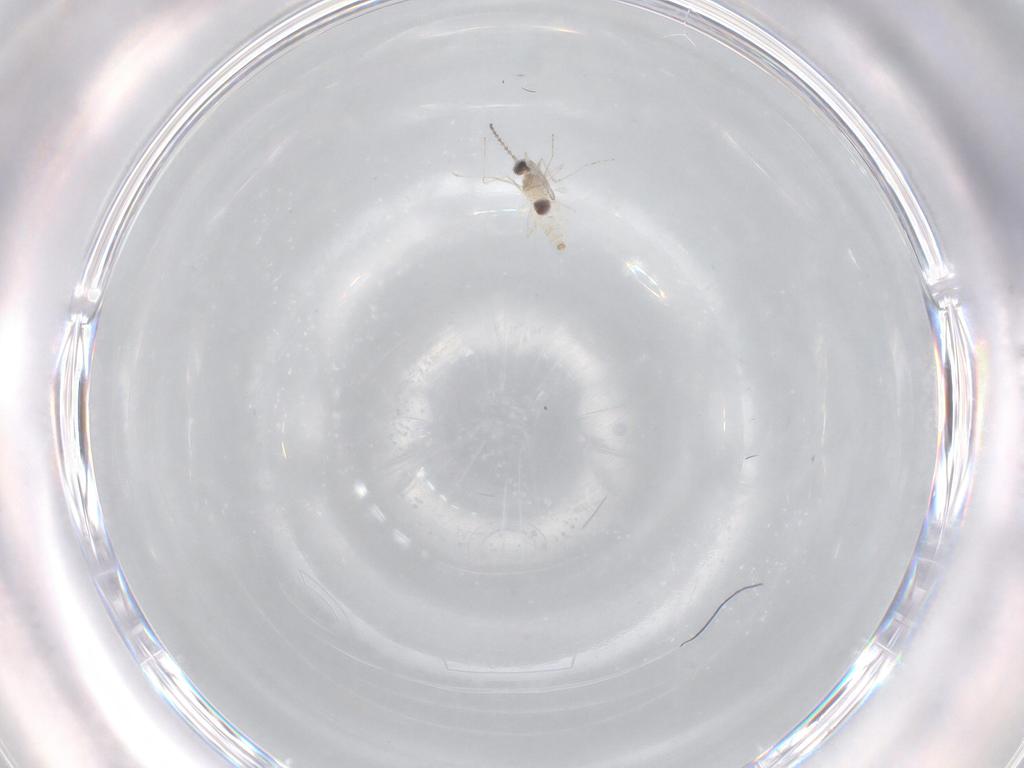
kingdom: Animalia
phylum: Arthropoda
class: Insecta
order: Diptera
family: Cecidomyiidae
